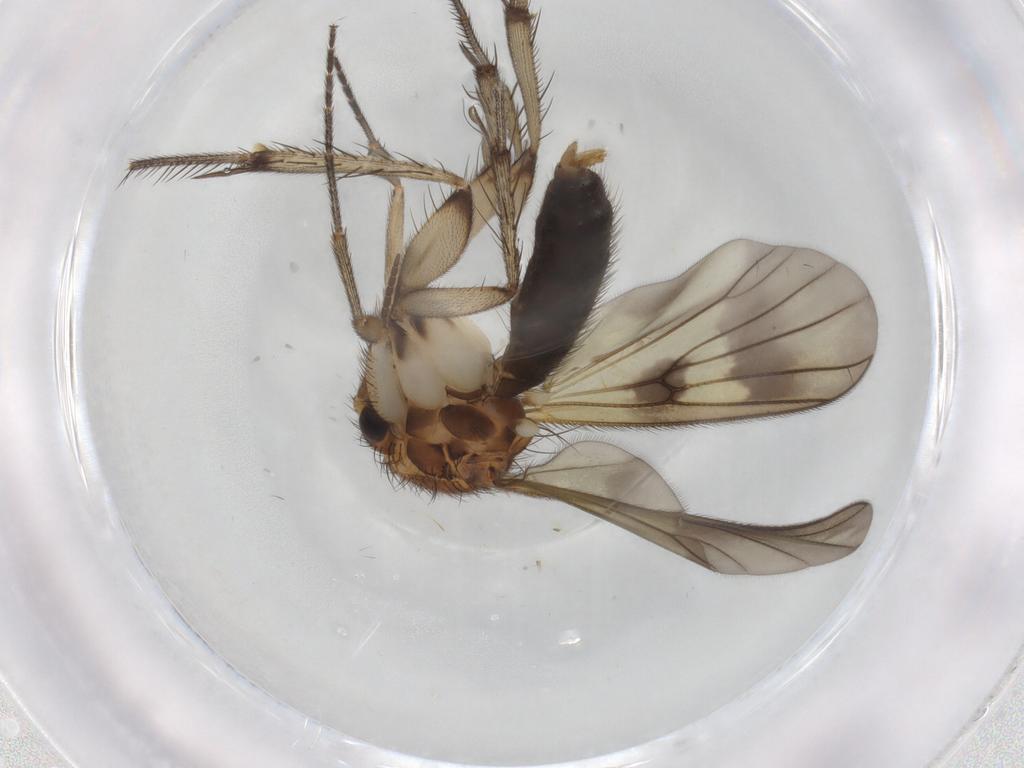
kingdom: Animalia
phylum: Arthropoda
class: Insecta
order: Diptera
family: Mycetophilidae
